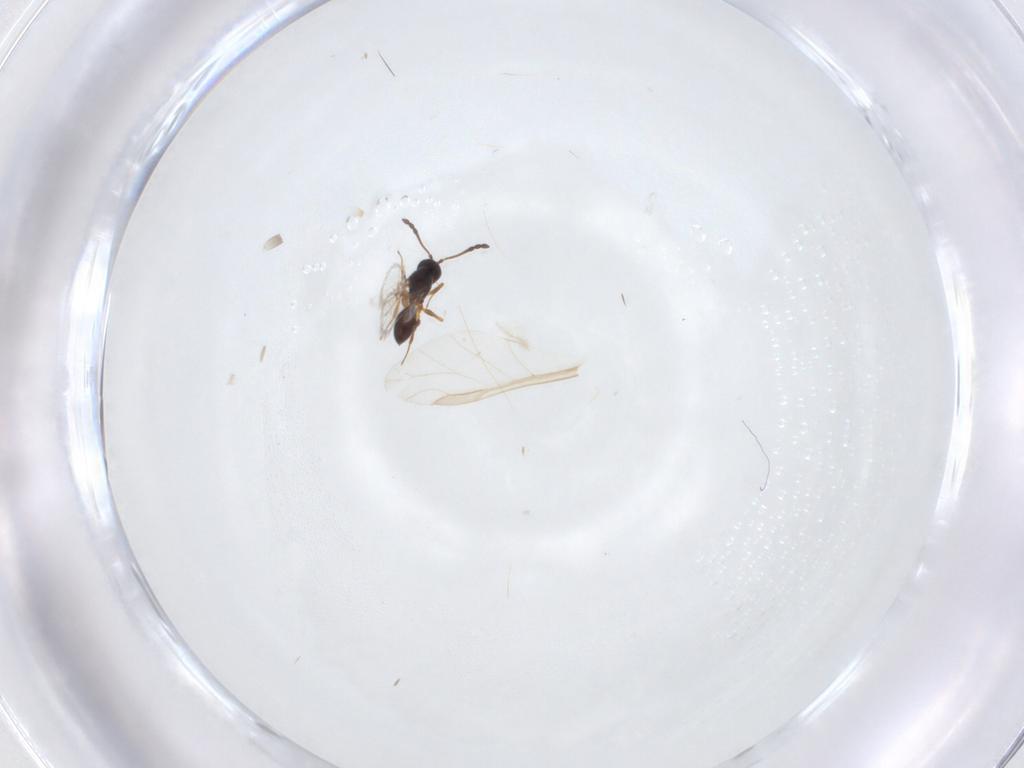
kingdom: Animalia
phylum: Arthropoda
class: Insecta
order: Hymenoptera
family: Figitidae
